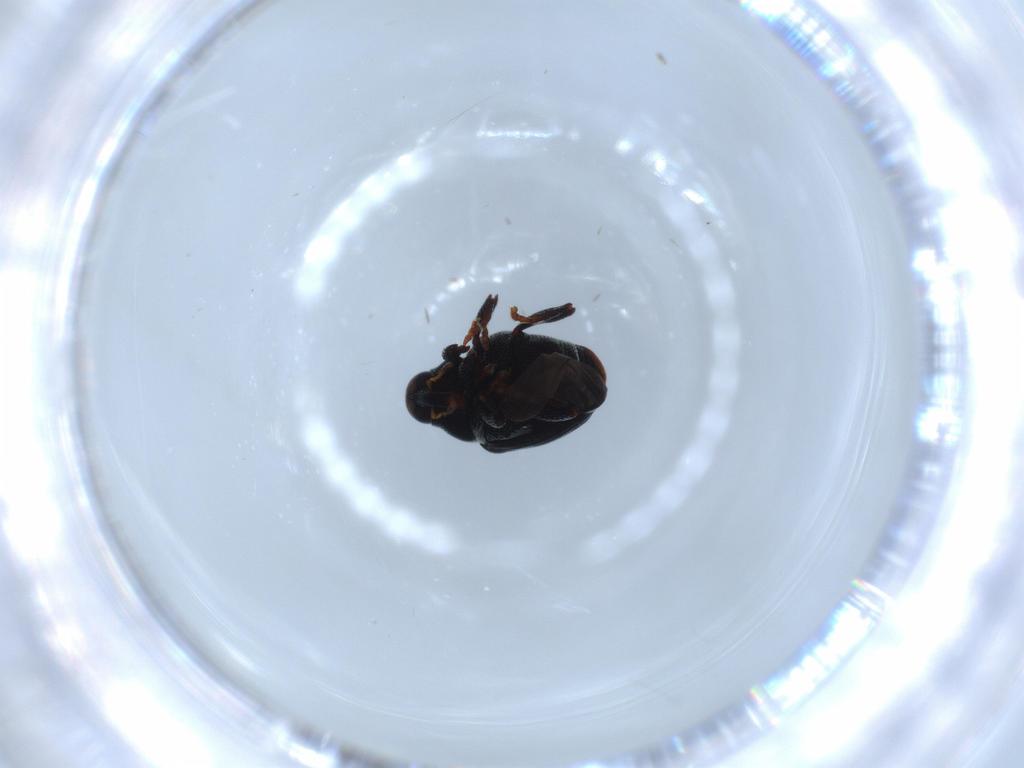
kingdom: Animalia
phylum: Arthropoda
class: Insecta
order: Coleoptera
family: Curculionidae
